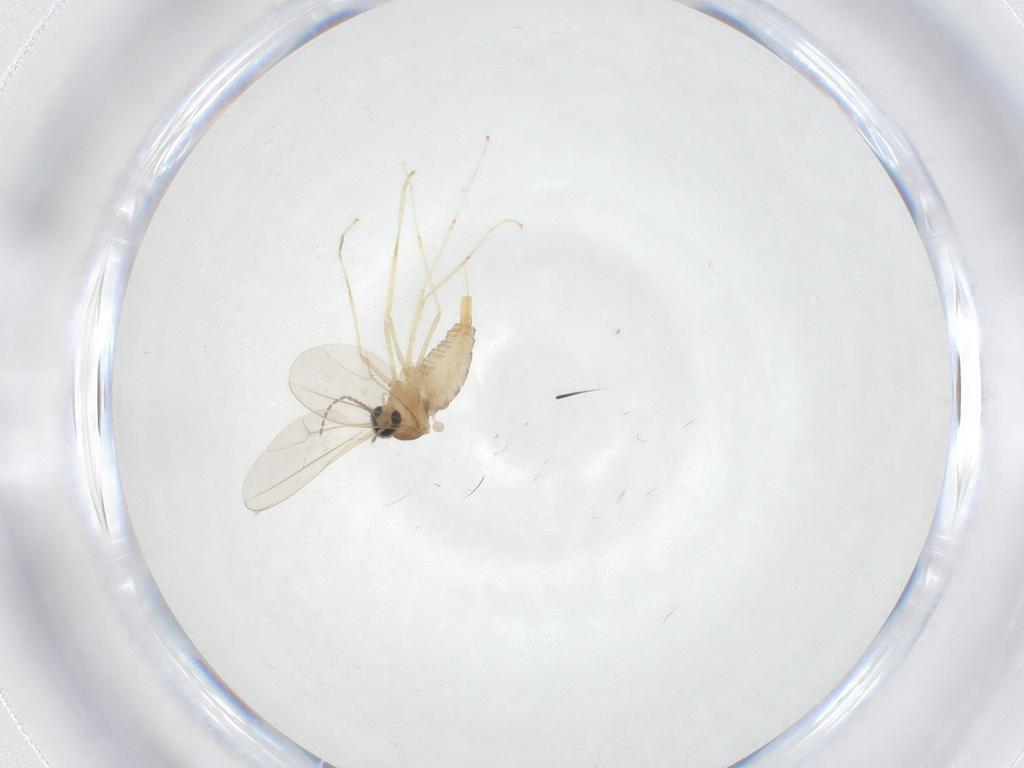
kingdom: Animalia
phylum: Arthropoda
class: Insecta
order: Diptera
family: Cecidomyiidae
